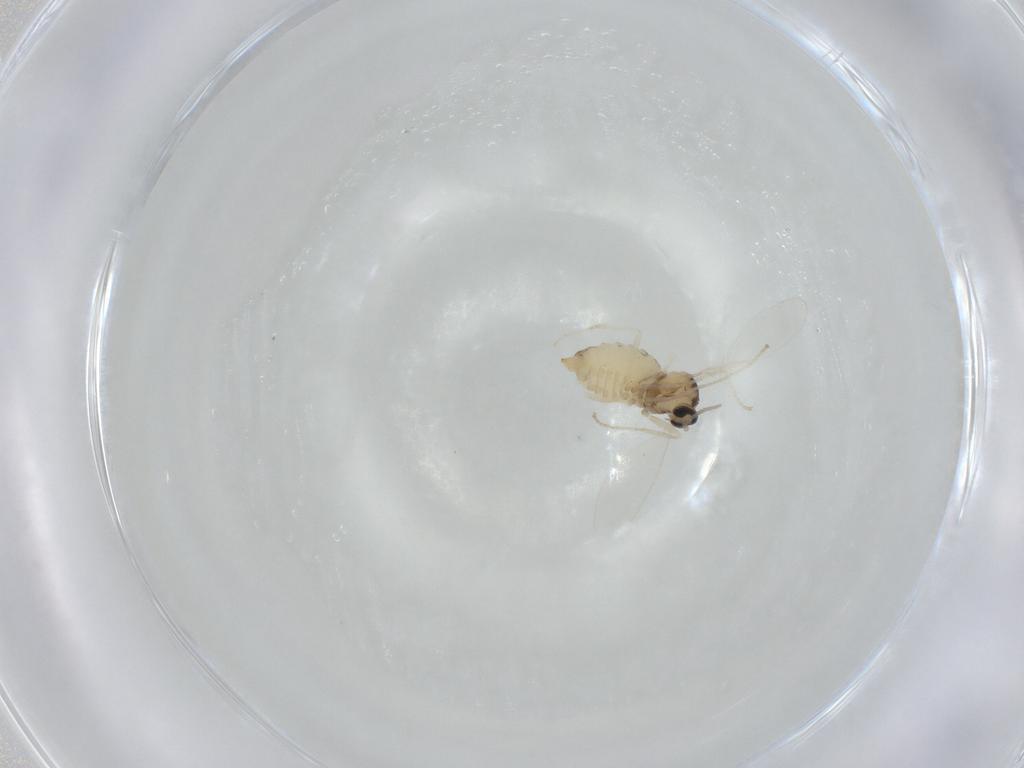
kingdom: Animalia
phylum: Arthropoda
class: Insecta
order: Diptera
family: Cecidomyiidae
